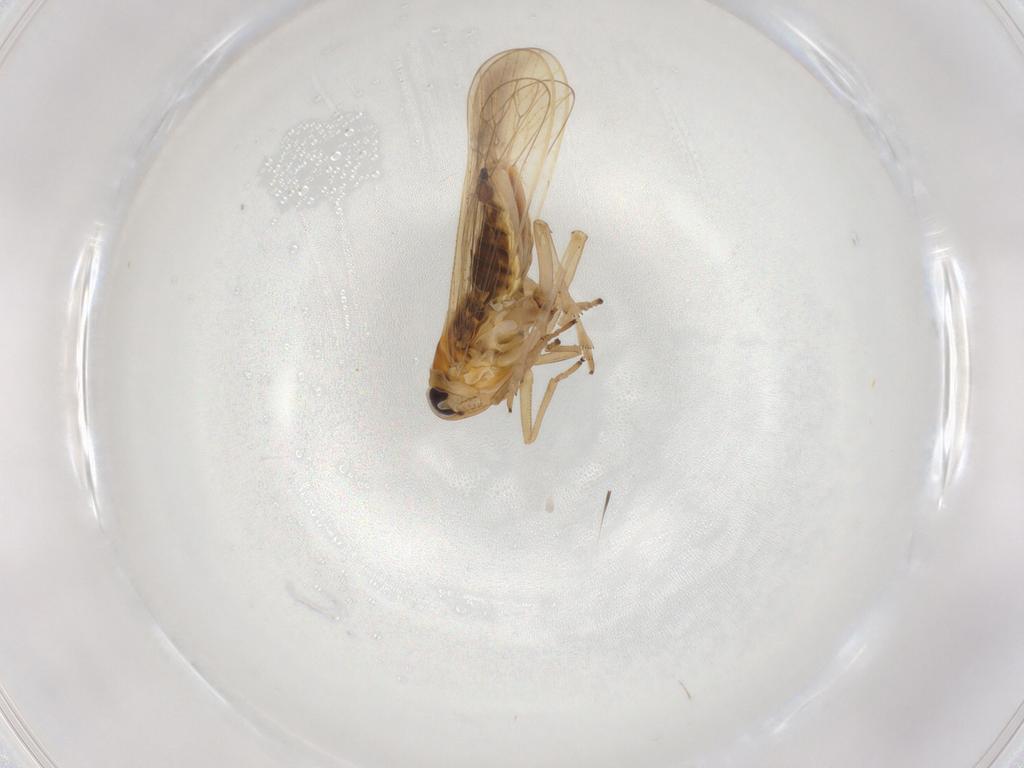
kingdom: Animalia
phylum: Arthropoda
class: Insecta
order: Hemiptera
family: Delphacidae
